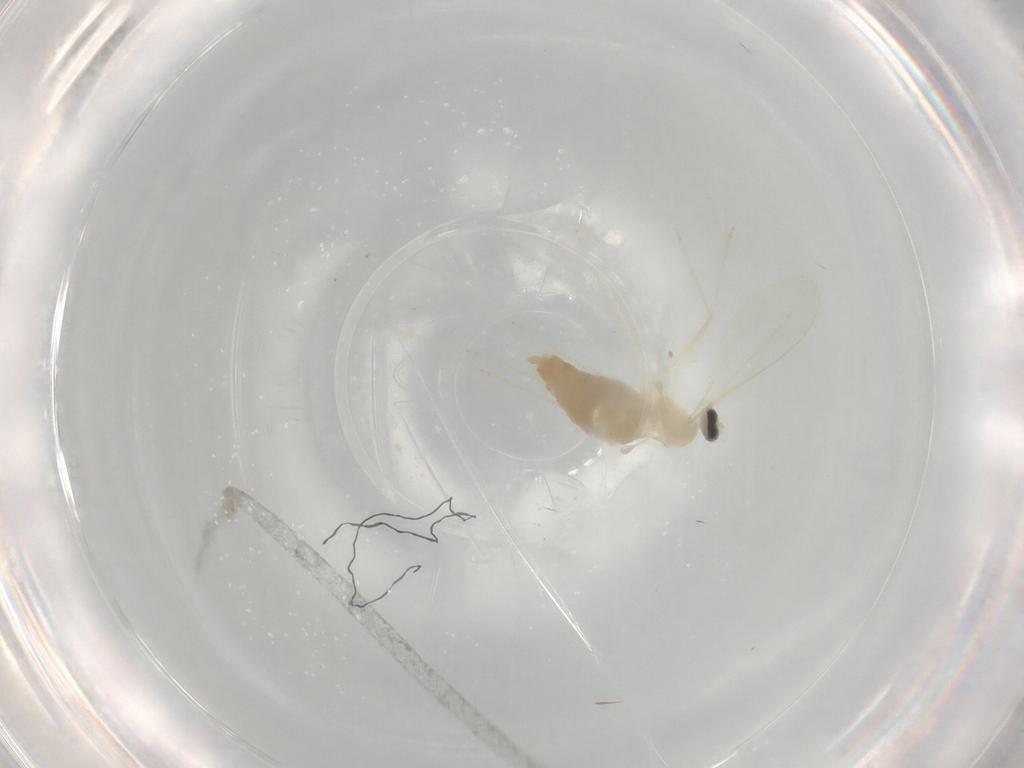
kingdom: Animalia
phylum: Arthropoda
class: Insecta
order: Diptera
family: Cecidomyiidae
